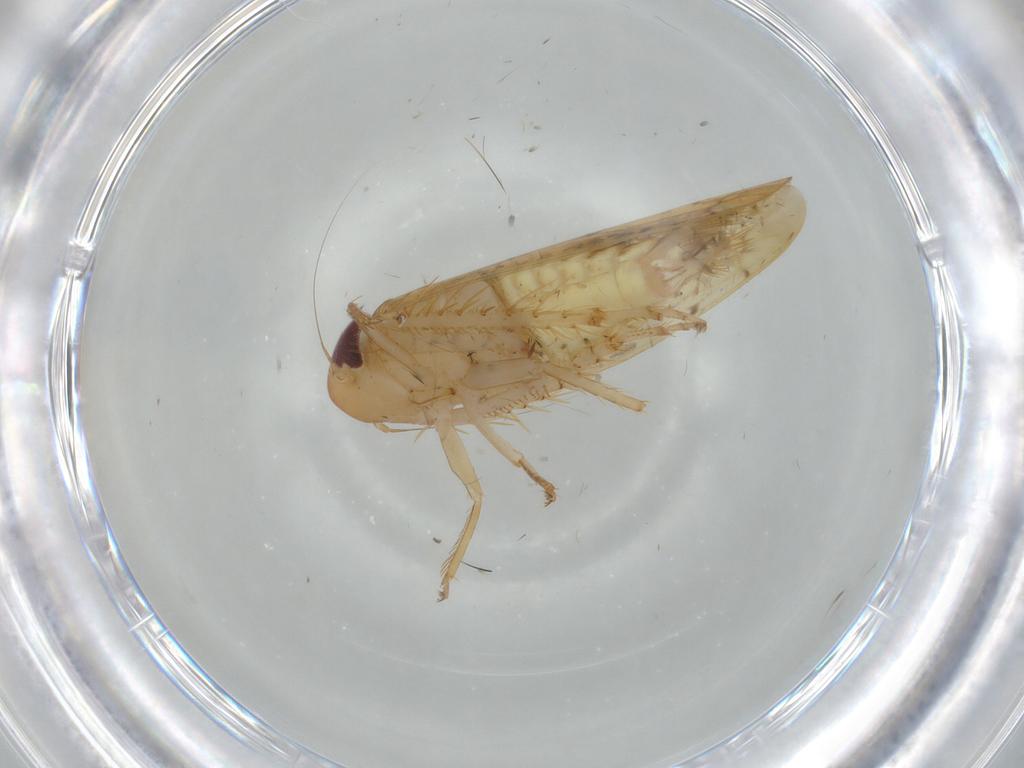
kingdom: Animalia
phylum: Arthropoda
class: Insecta
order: Hemiptera
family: Cicadellidae
